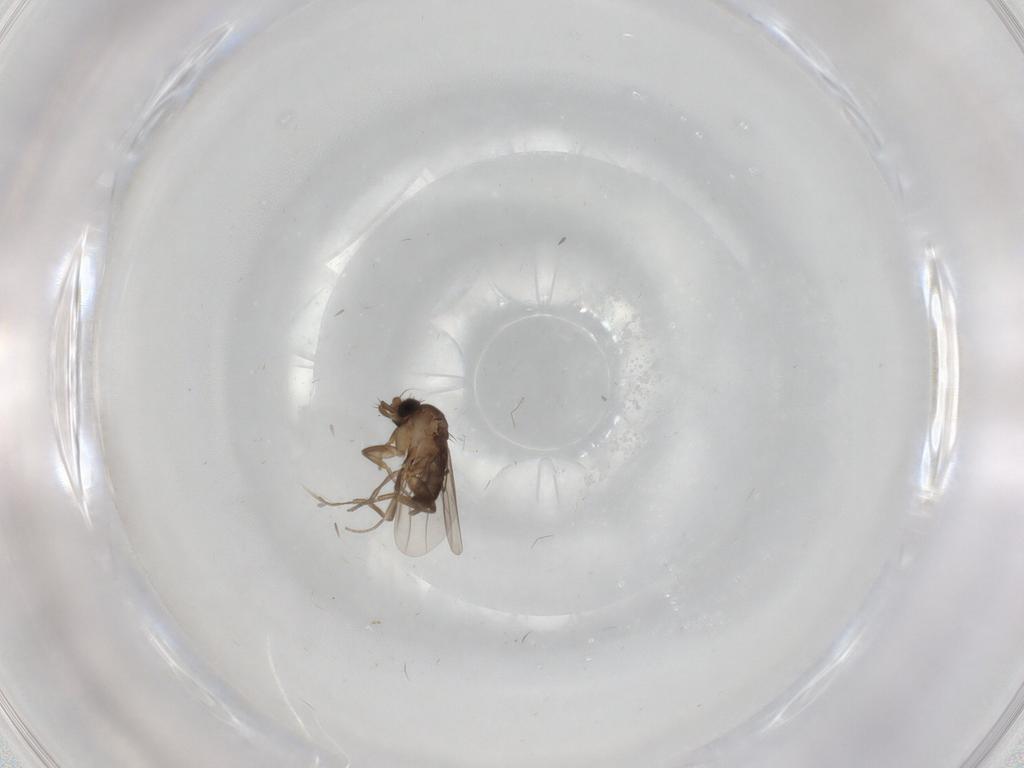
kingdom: Animalia
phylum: Arthropoda
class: Insecta
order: Diptera
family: Phoridae
